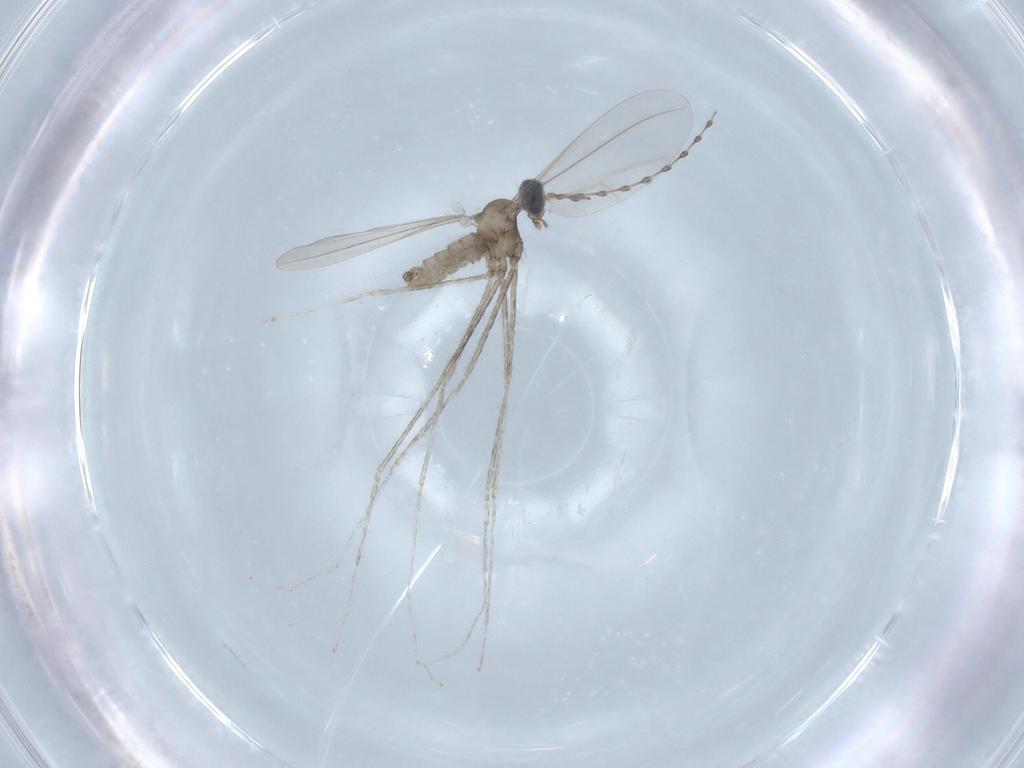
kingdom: Animalia
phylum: Arthropoda
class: Insecta
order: Diptera
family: Cecidomyiidae
